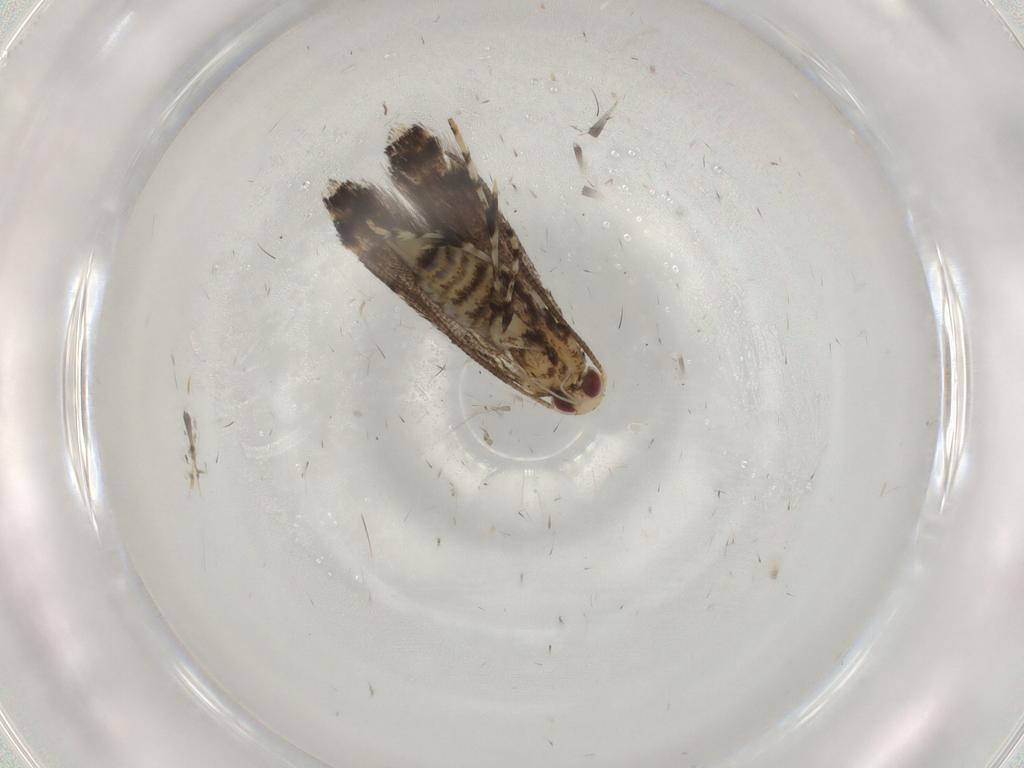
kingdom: Animalia
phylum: Arthropoda
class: Insecta
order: Lepidoptera
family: Gracillariidae
